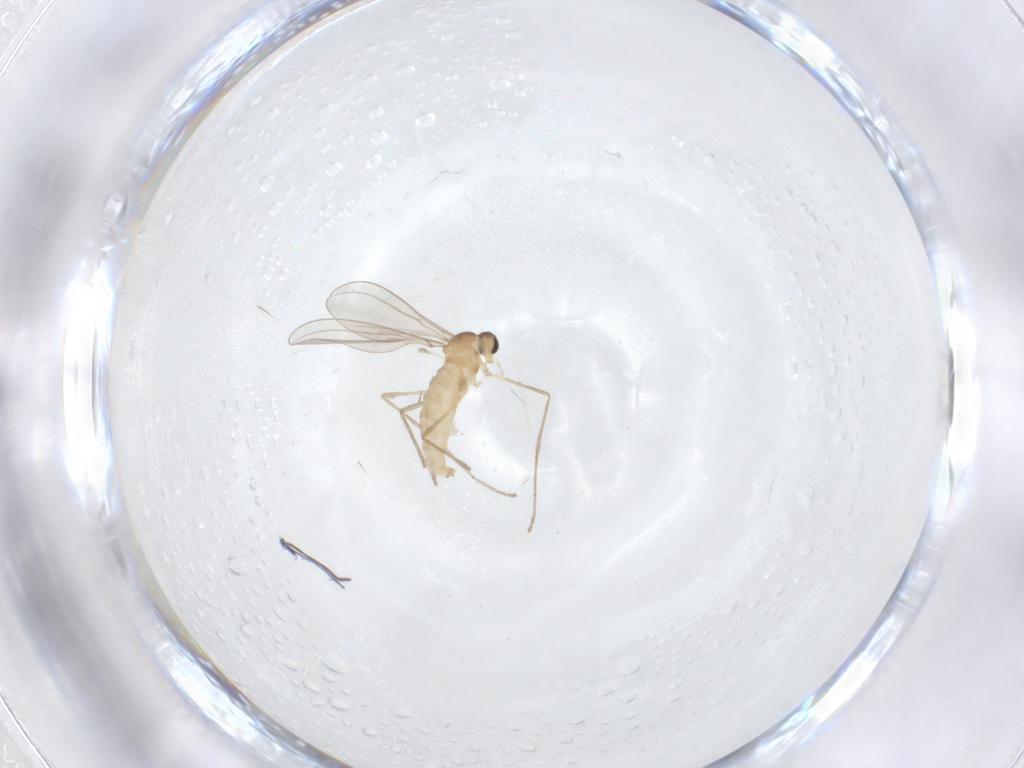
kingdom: Animalia
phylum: Arthropoda
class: Insecta
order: Diptera
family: Cecidomyiidae
